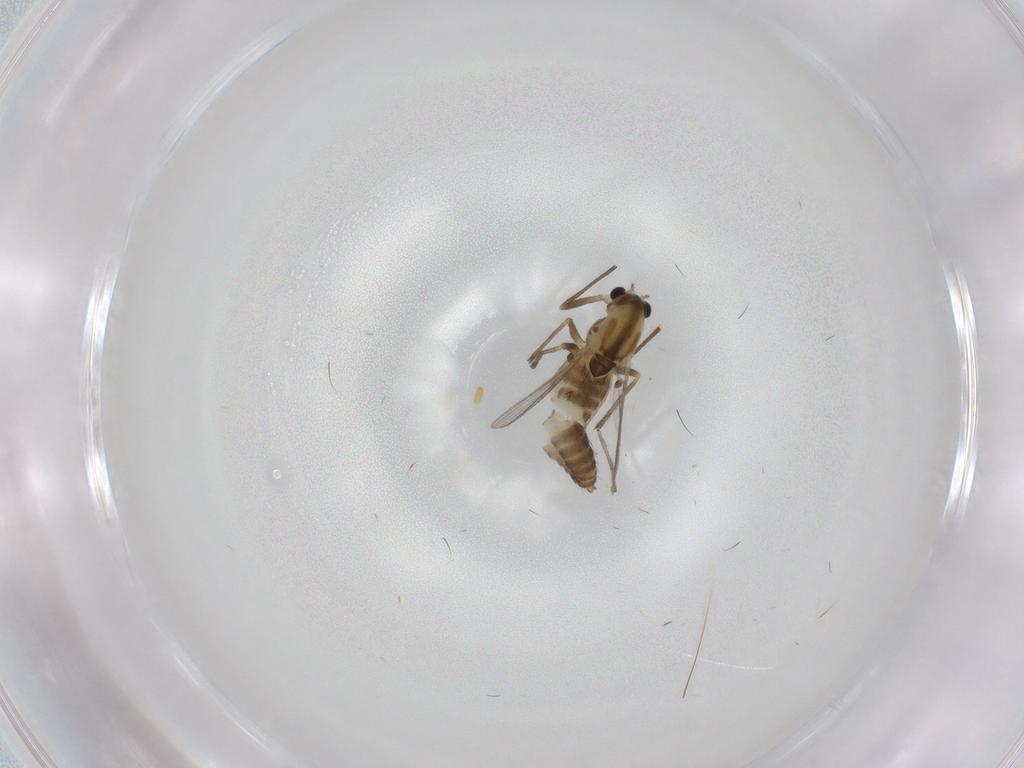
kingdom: Animalia
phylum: Arthropoda
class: Insecta
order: Diptera
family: Chironomidae
